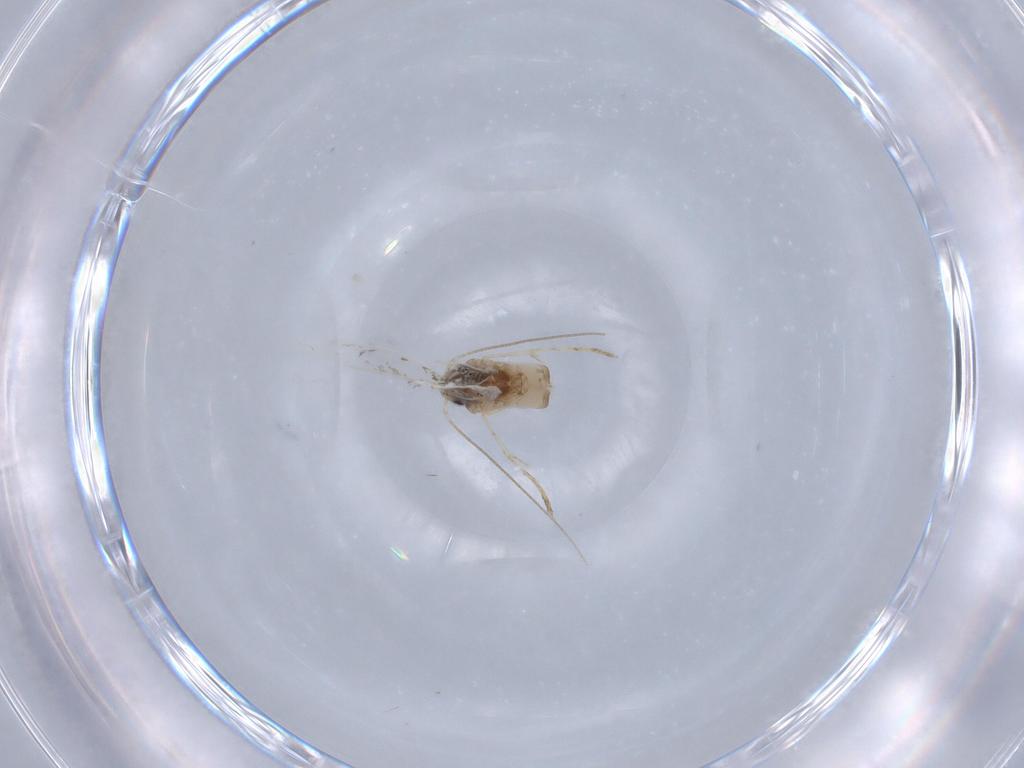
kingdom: Animalia
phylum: Arthropoda
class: Insecta
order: Lepidoptera
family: Tortricidae
